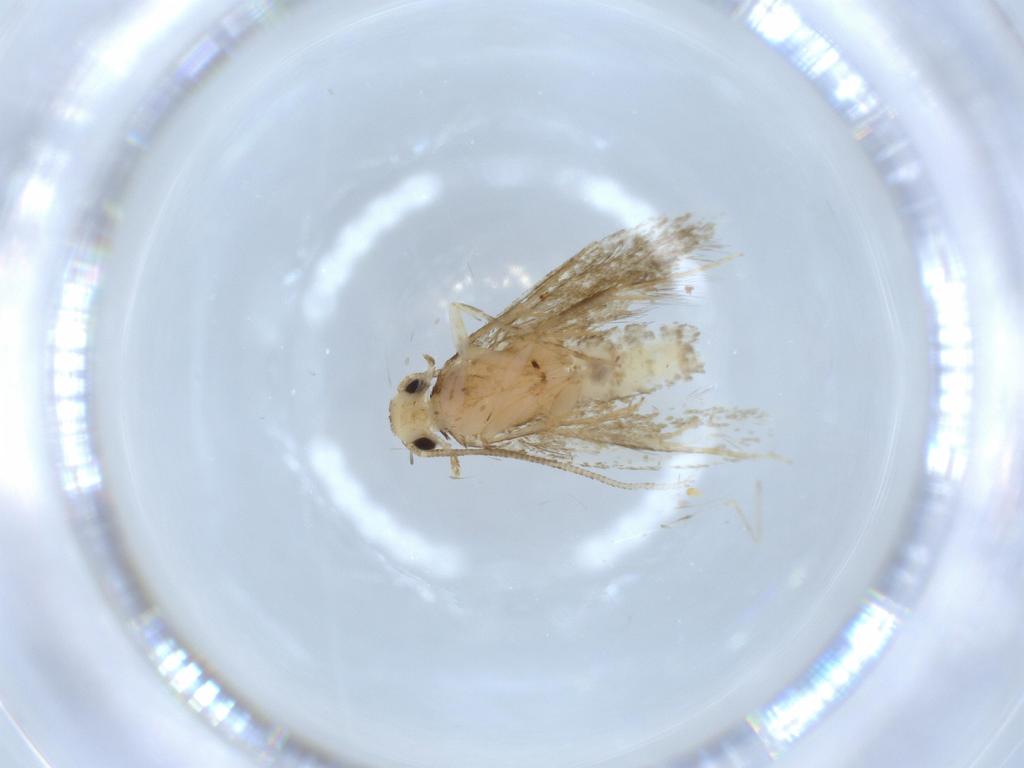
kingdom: Animalia
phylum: Arthropoda
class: Insecta
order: Lepidoptera
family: Tineidae
